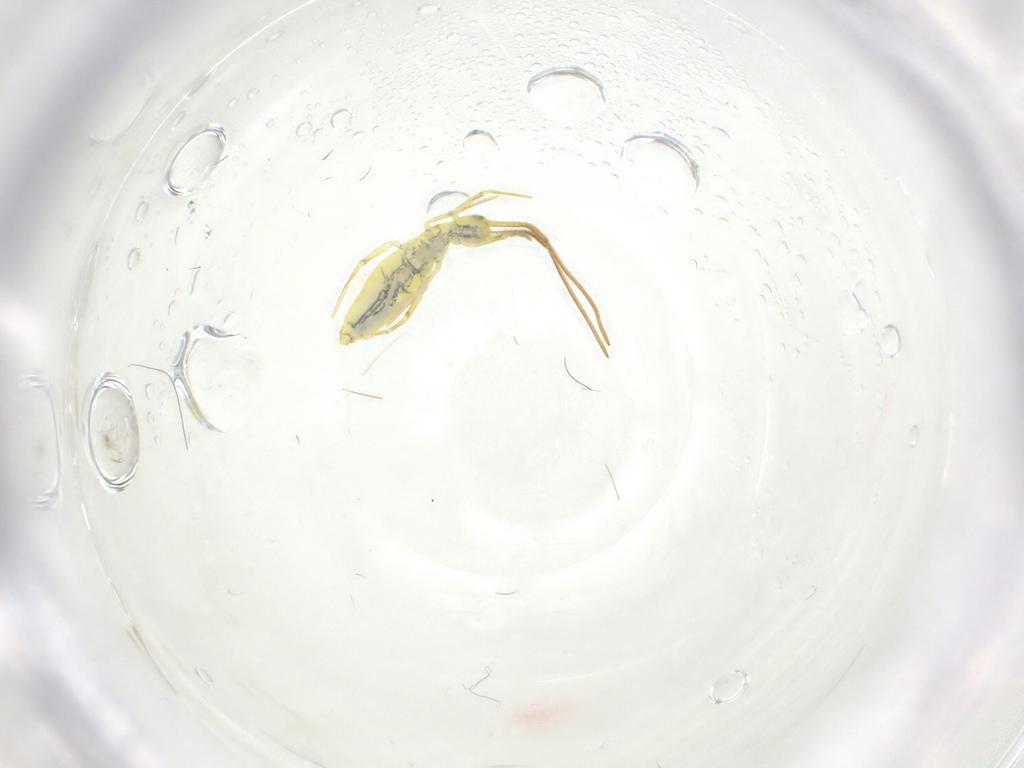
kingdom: Animalia
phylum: Arthropoda
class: Collembola
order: Entomobryomorpha
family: Entomobryidae
